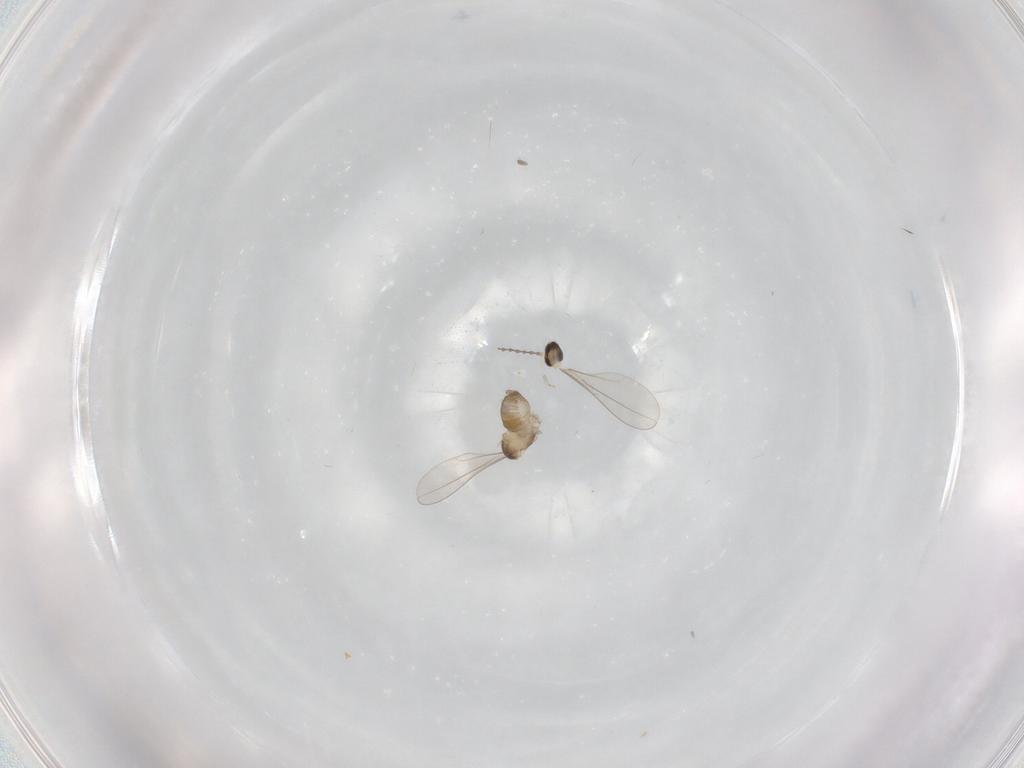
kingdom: Animalia
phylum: Arthropoda
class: Insecta
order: Diptera
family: Cecidomyiidae
